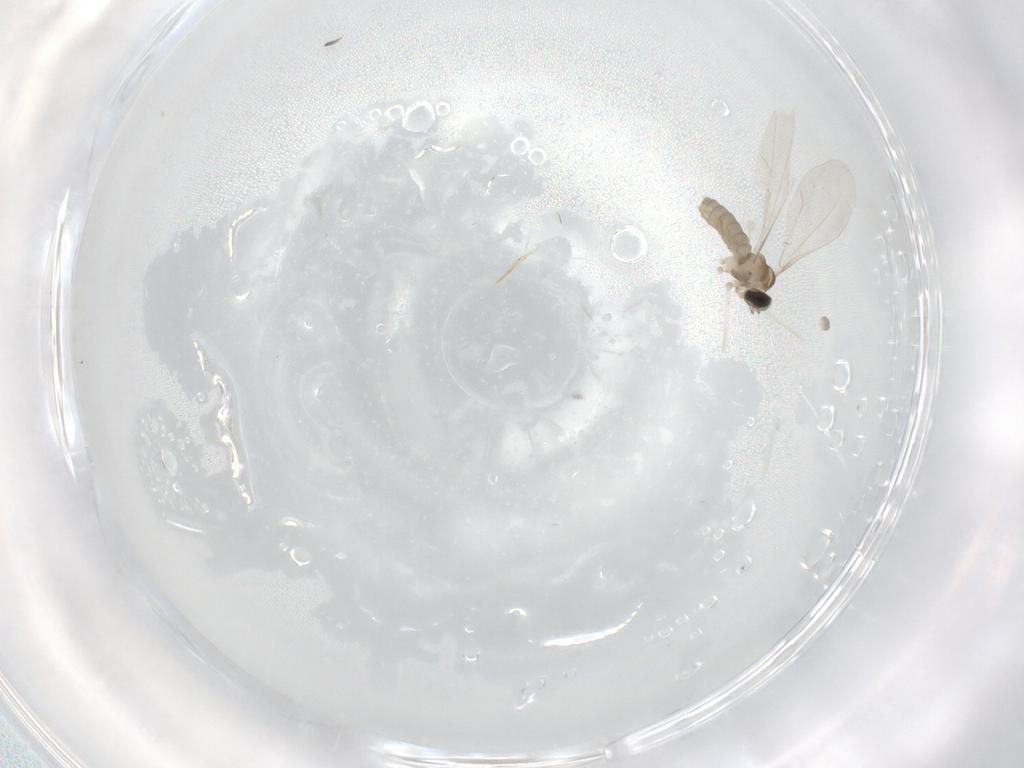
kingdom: Animalia
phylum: Arthropoda
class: Insecta
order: Diptera
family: Cecidomyiidae
